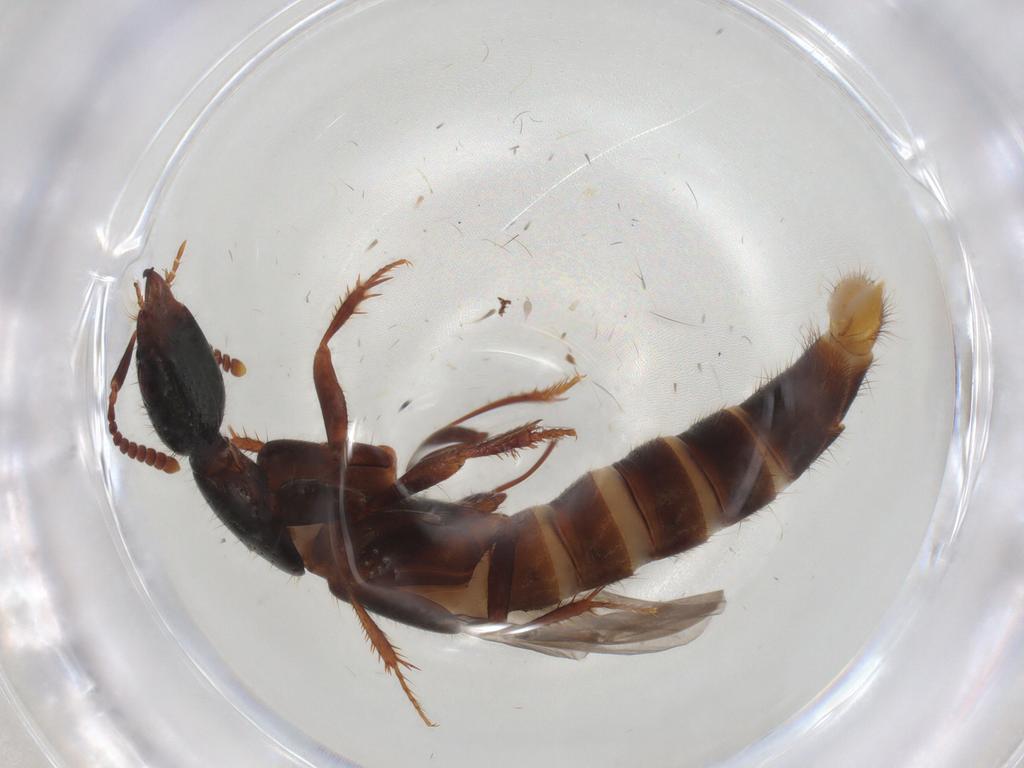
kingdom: Animalia
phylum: Arthropoda
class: Insecta
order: Coleoptera
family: Staphylinidae
